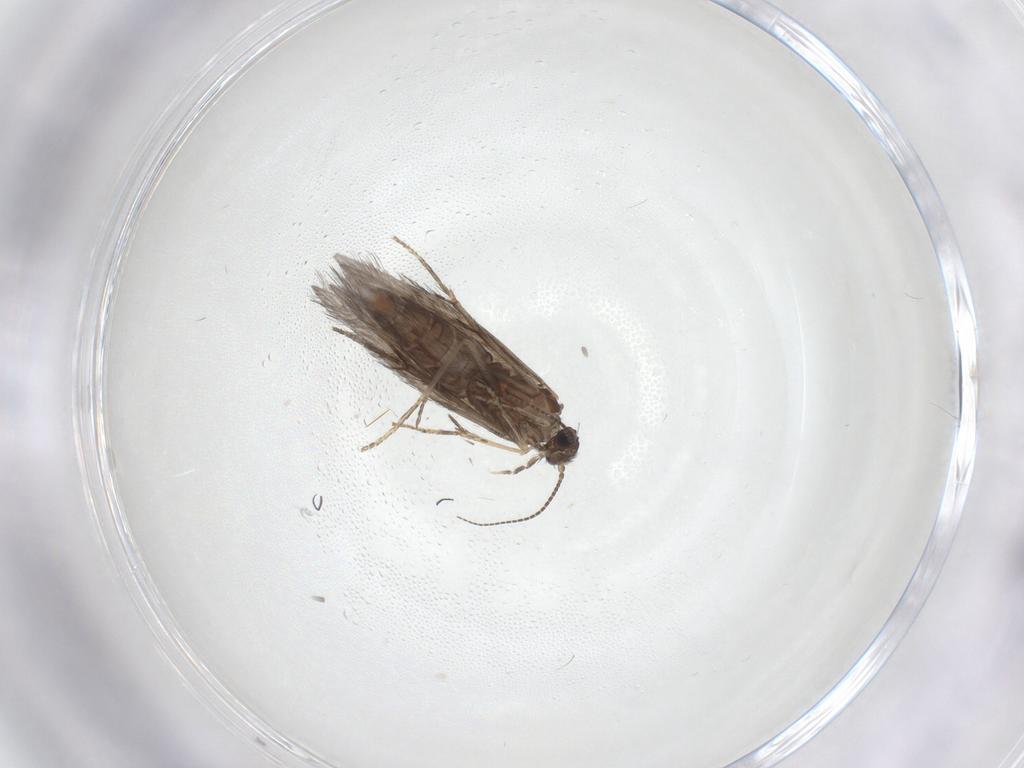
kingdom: Animalia
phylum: Arthropoda
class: Insecta
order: Trichoptera
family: Hydroptilidae
